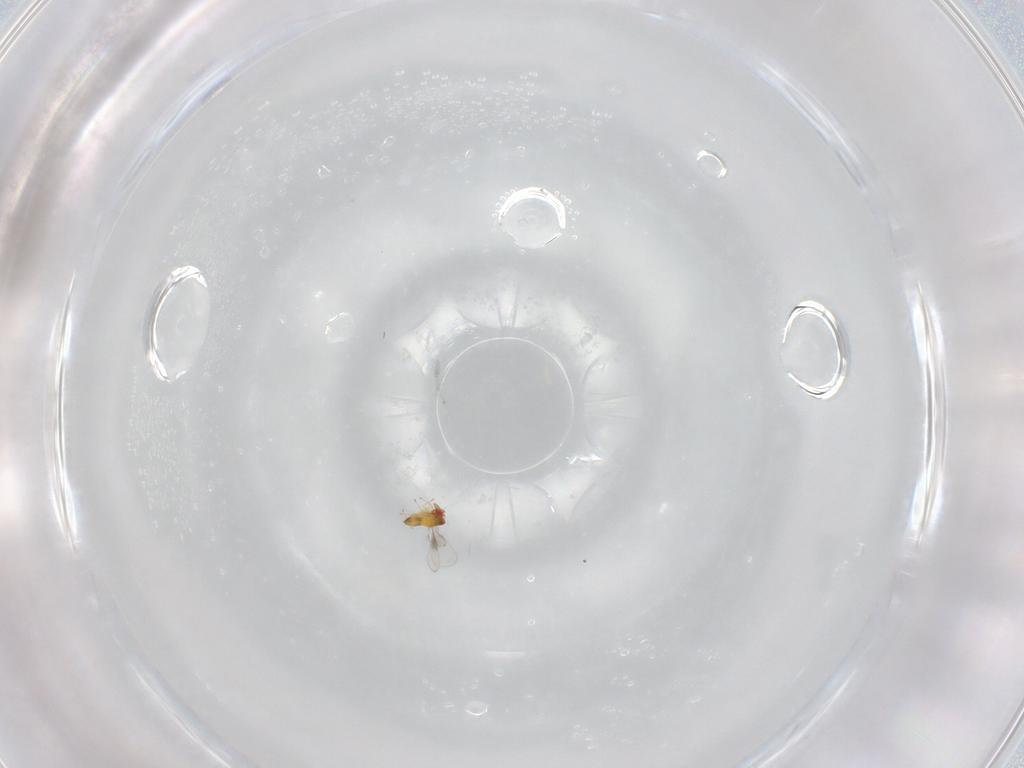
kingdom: Animalia
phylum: Arthropoda
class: Insecta
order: Hymenoptera
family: Trichogrammatidae
